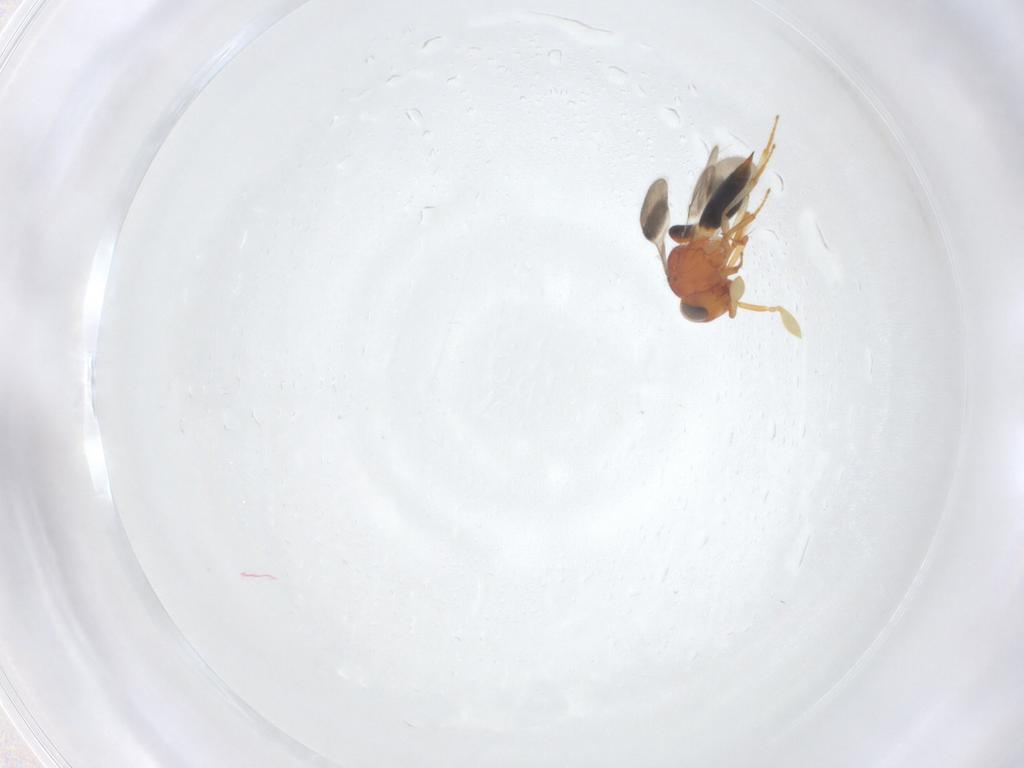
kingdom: Animalia
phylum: Arthropoda
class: Insecta
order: Hymenoptera
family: Scelionidae
